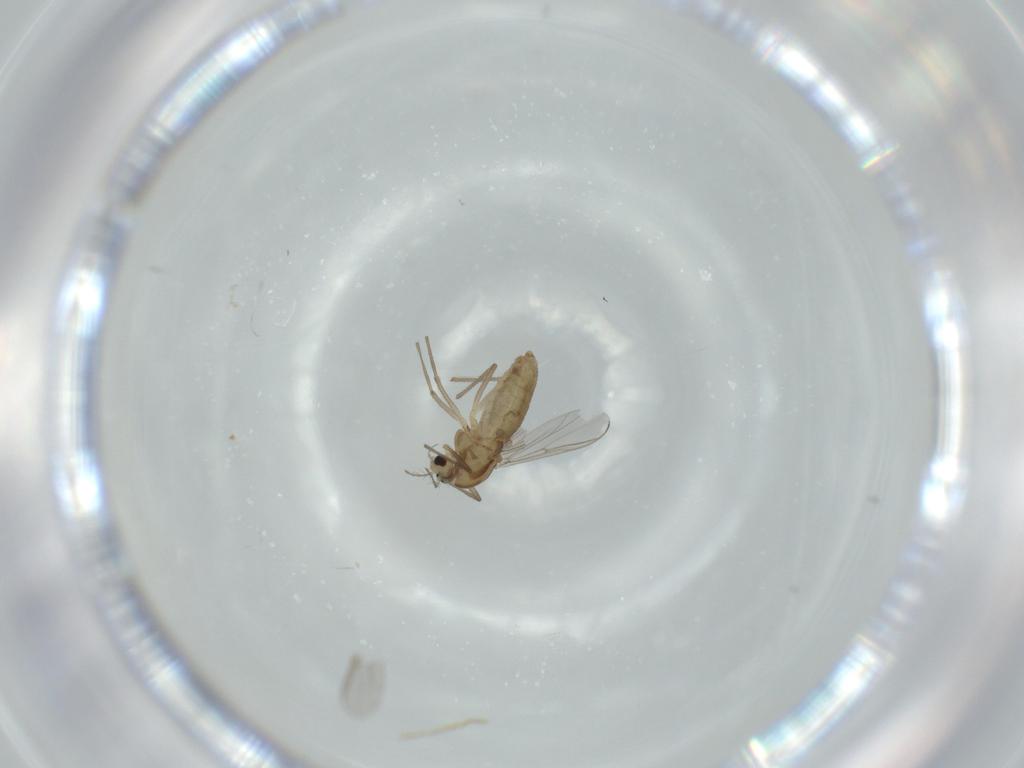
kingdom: Animalia
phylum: Arthropoda
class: Insecta
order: Diptera
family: Chironomidae
